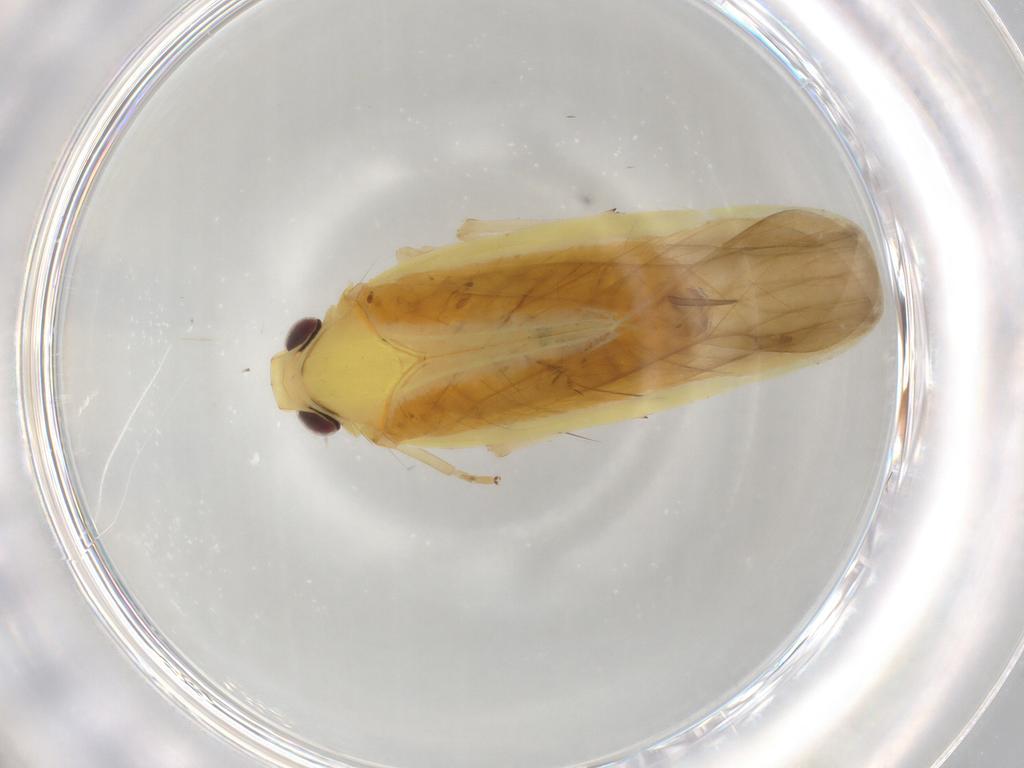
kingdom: Animalia
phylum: Arthropoda
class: Insecta
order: Hemiptera
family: Achilidae
